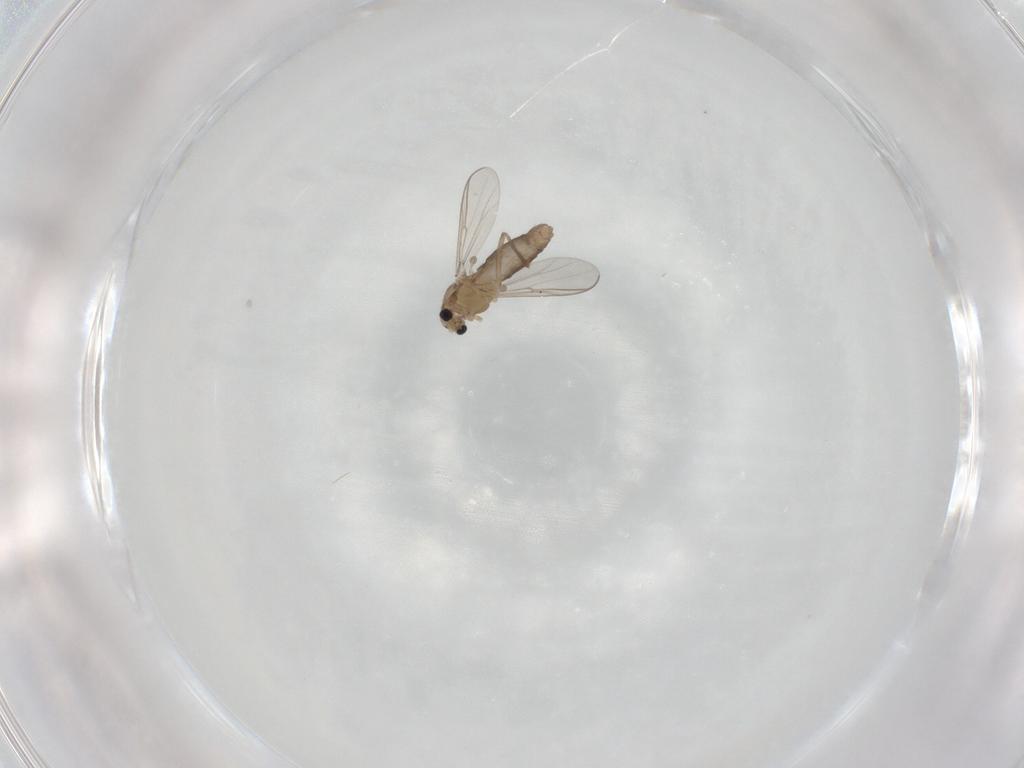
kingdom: Animalia
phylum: Arthropoda
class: Insecta
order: Diptera
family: Chironomidae
